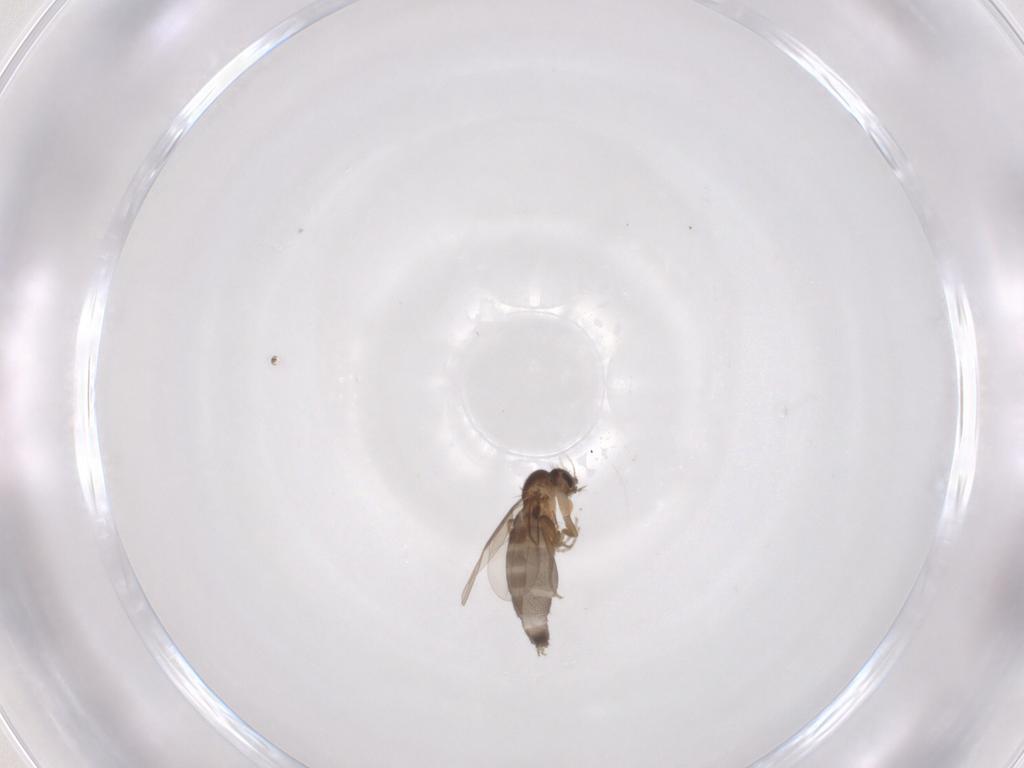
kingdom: Animalia
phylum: Arthropoda
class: Insecta
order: Diptera
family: Phoridae
